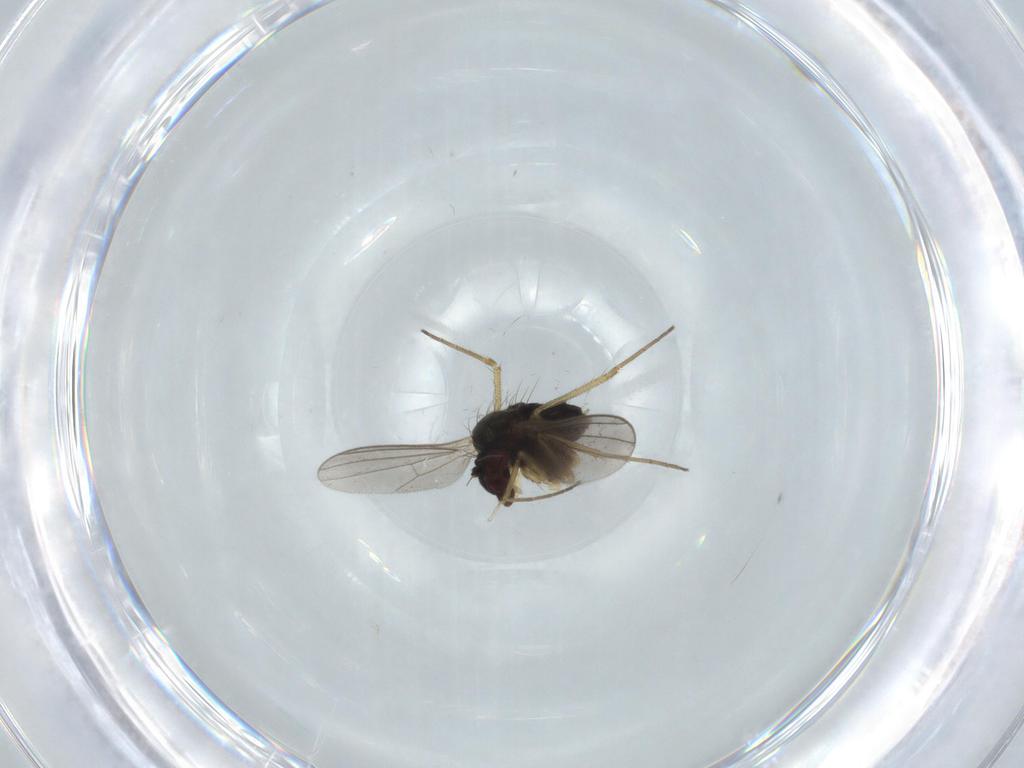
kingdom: Animalia
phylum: Arthropoda
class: Insecta
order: Diptera
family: Dolichopodidae
